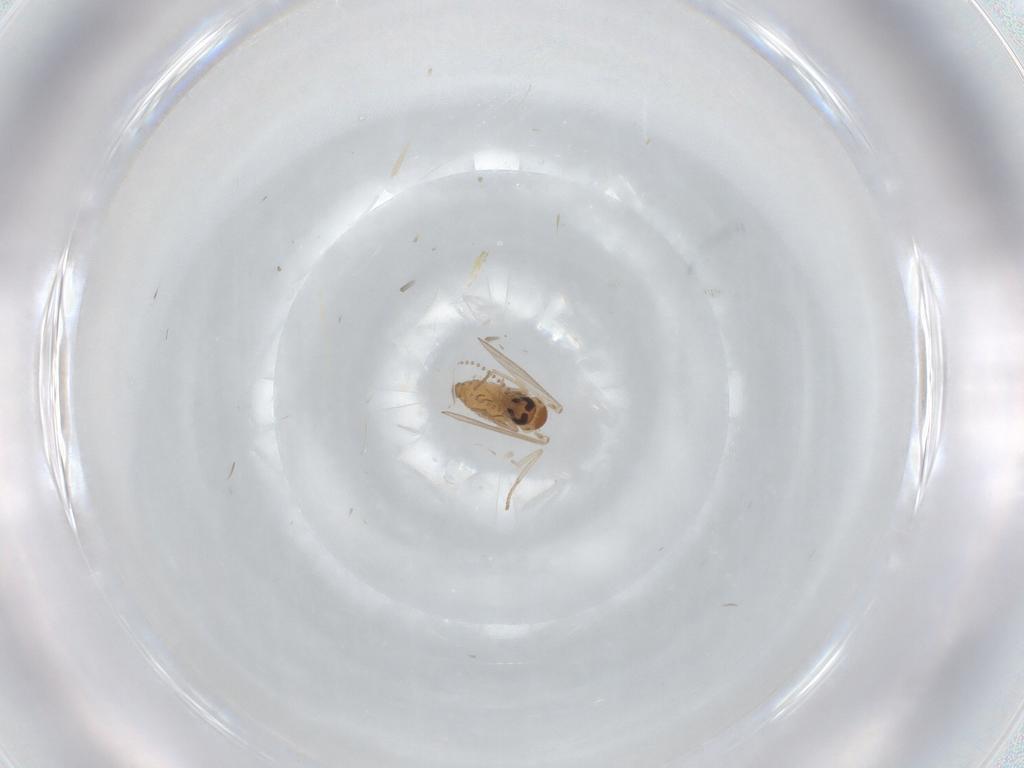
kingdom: Animalia
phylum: Arthropoda
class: Insecta
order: Diptera
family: Psychodidae
